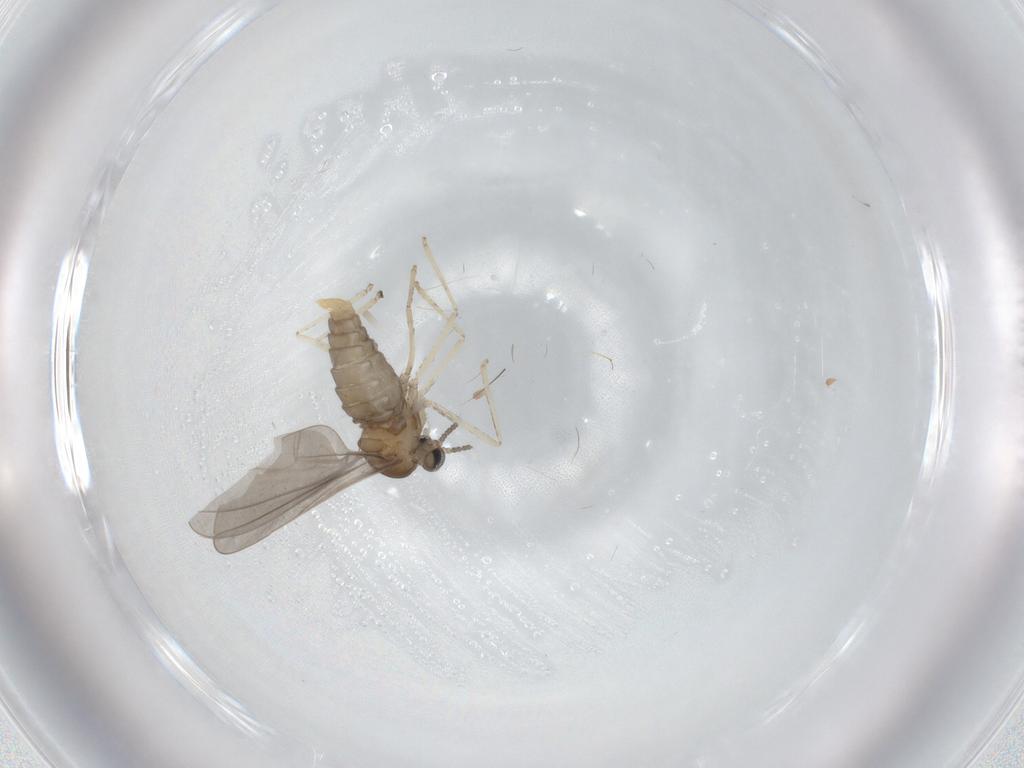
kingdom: Animalia
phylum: Arthropoda
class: Insecta
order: Diptera
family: Cecidomyiidae
